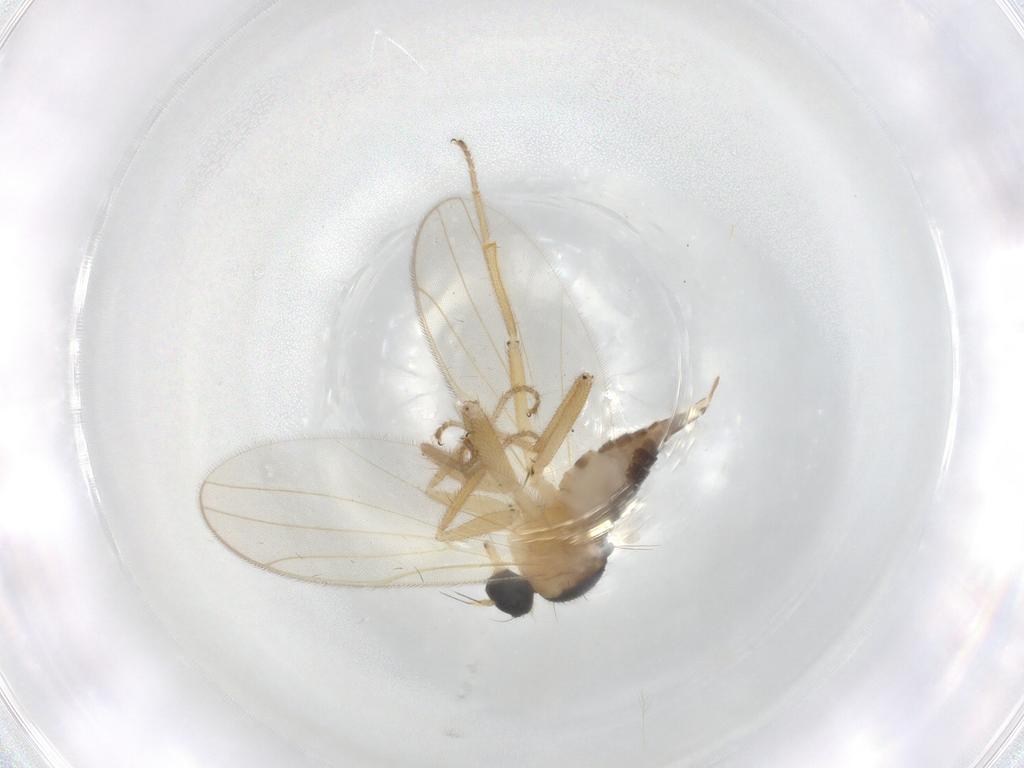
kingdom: Animalia
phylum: Arthropoda
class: Insecta
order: Diptera
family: Hybotidae
